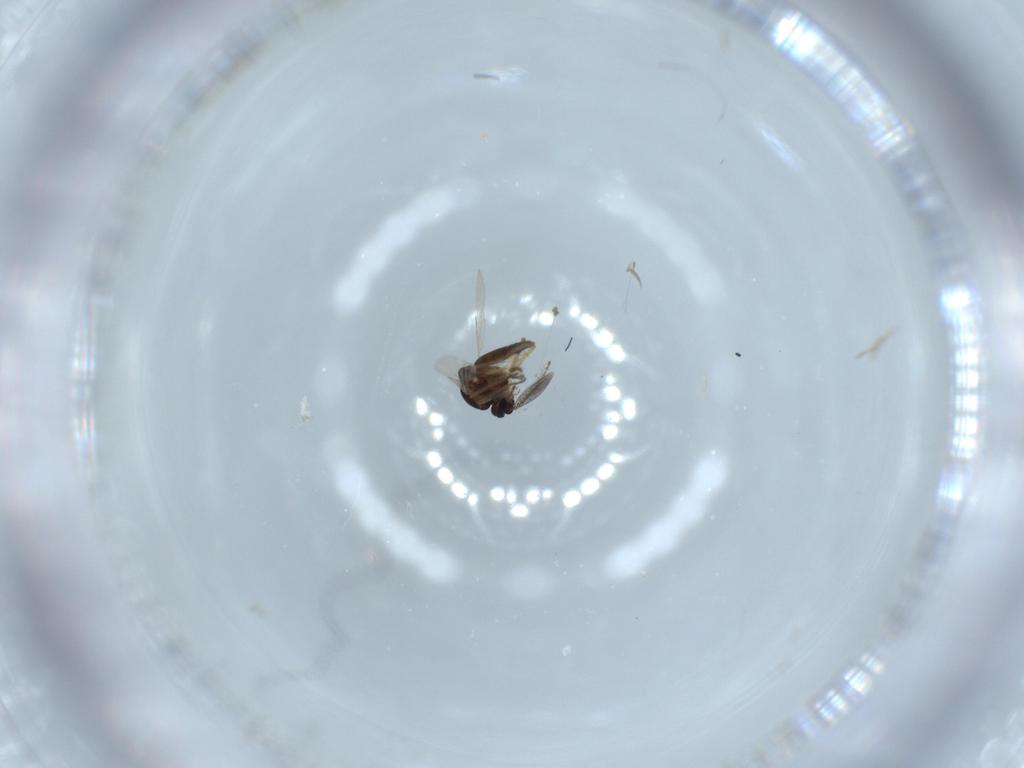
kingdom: Animalia
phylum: Arthropoda
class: Insecta
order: Diptera
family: Ceratopogonidae
